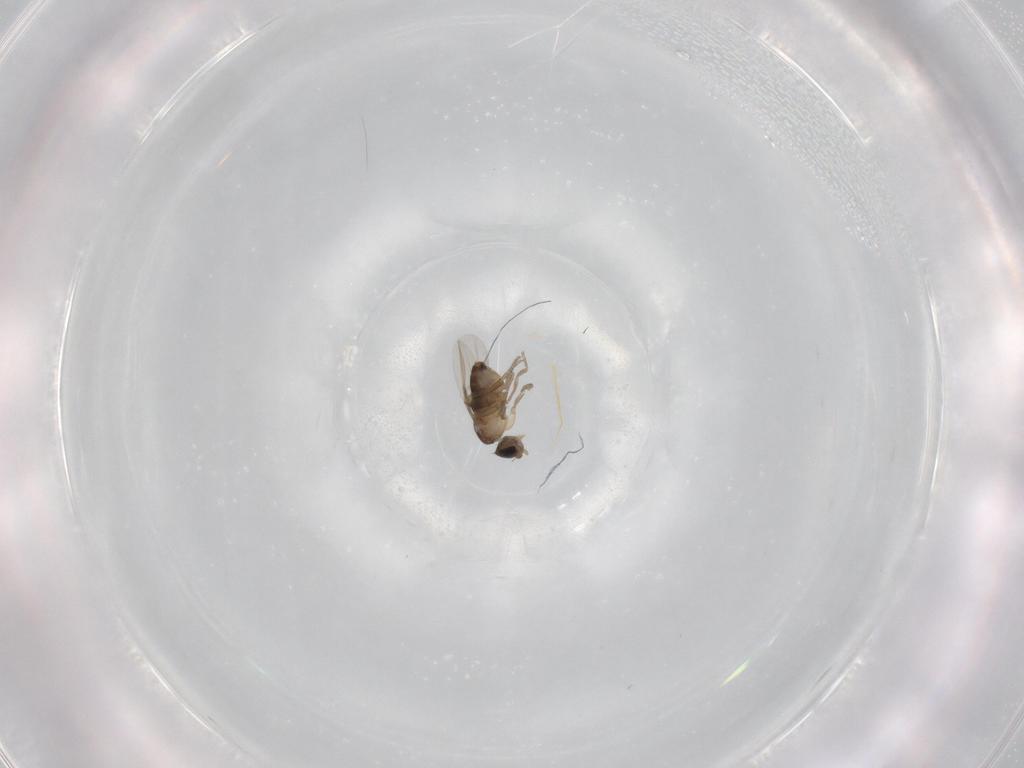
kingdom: Animalia
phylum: Arthropoda
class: Insecta
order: Diptera
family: Phoridae
